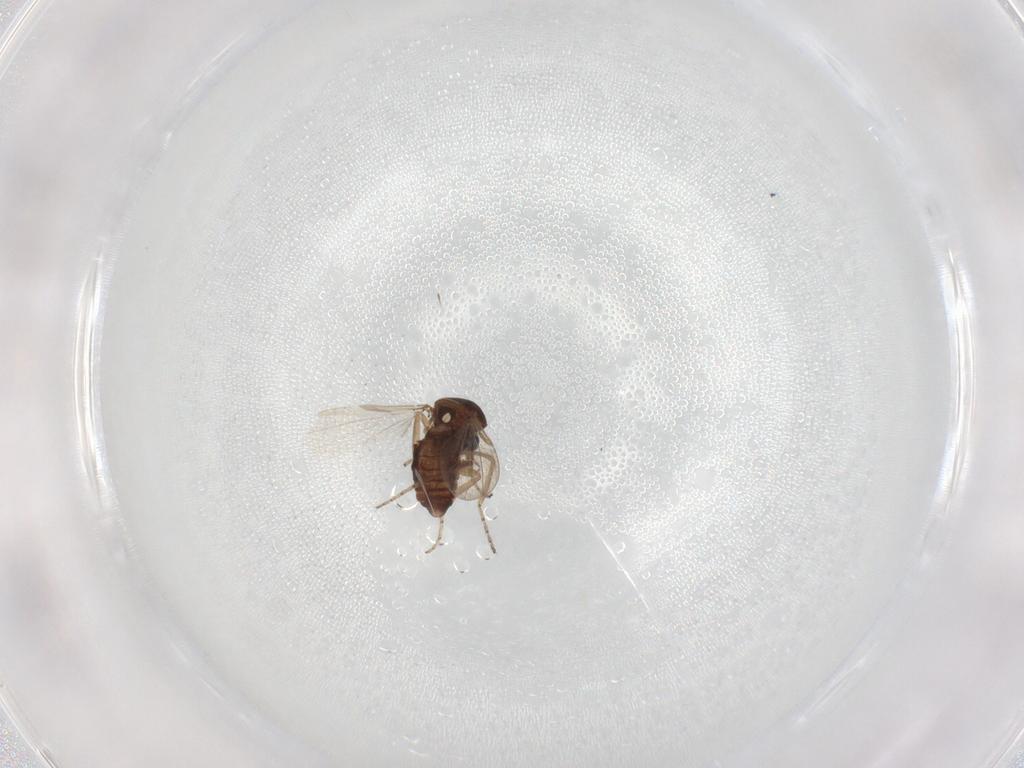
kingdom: Animalia
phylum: Arthropoda
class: Insecta
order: Diptera
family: Ceratopogonidae
